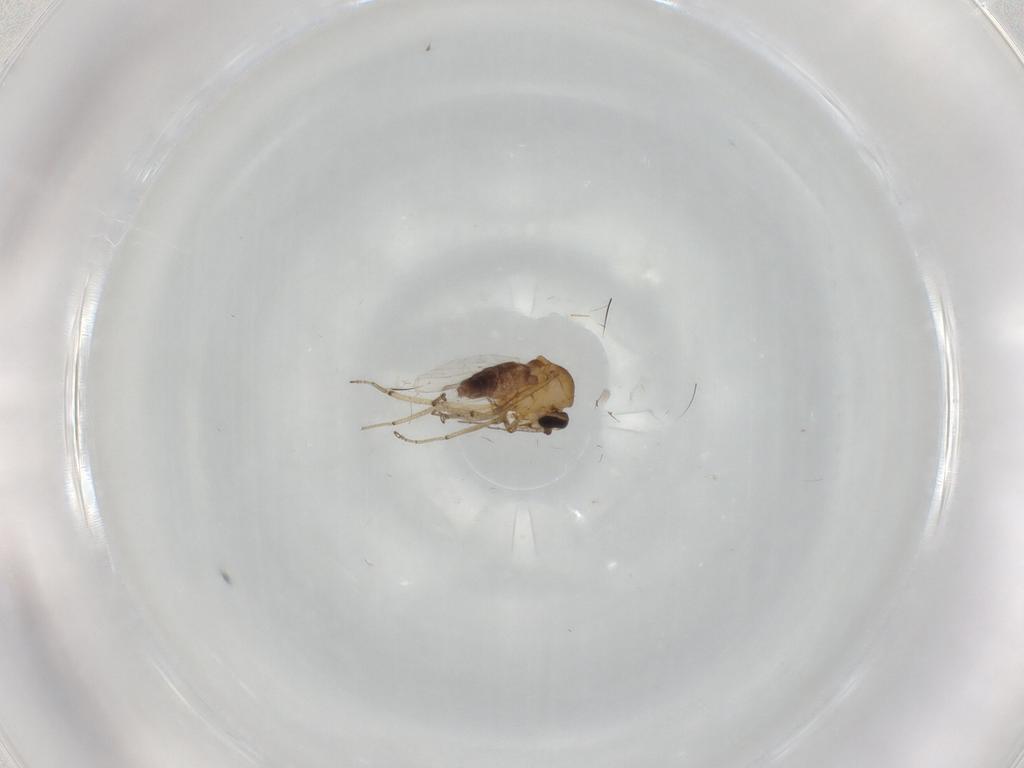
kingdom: Animalia
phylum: Arthropoda
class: Insecta
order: Diptera
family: Ceratopogonidae
